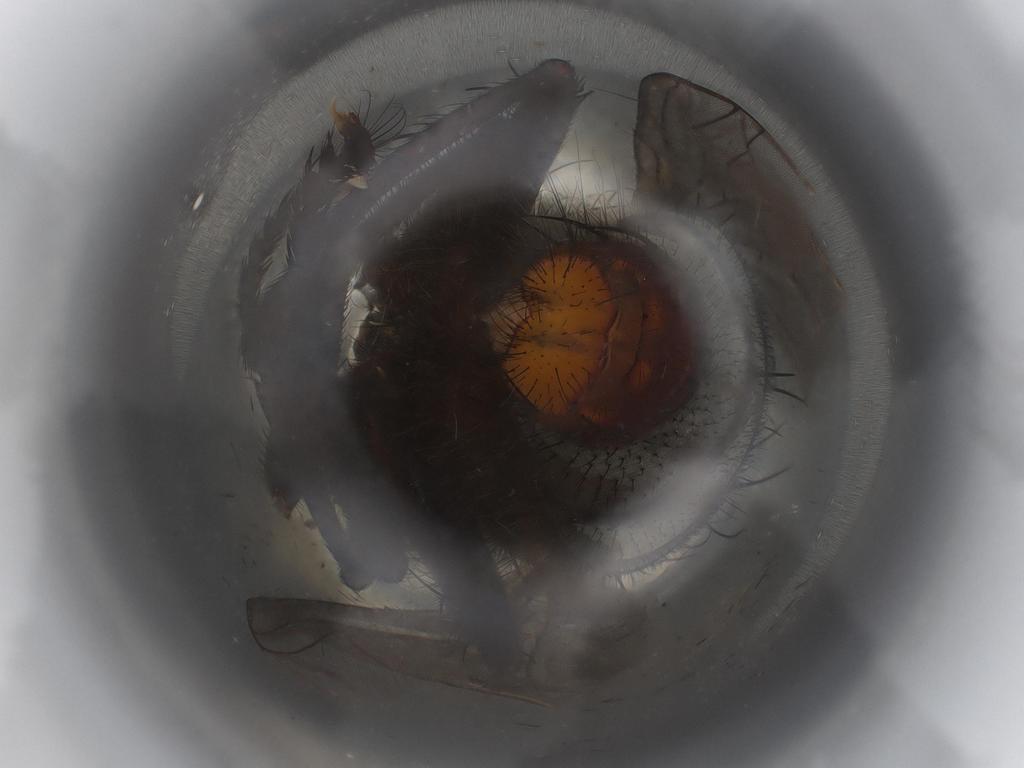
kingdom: Animalia
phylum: Arthropoda
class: Insecta
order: Diptera
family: Sarcophagidae
